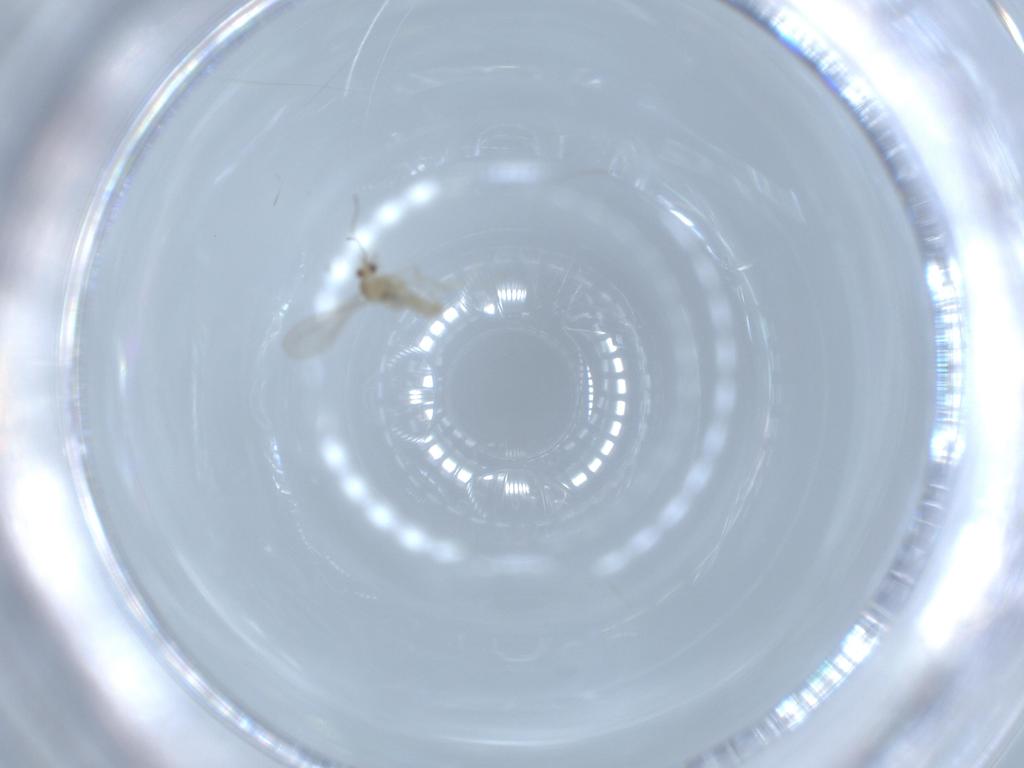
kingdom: Animalia
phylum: Arthropoda
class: Insecta
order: Diptera
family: Cecidomyiidae
